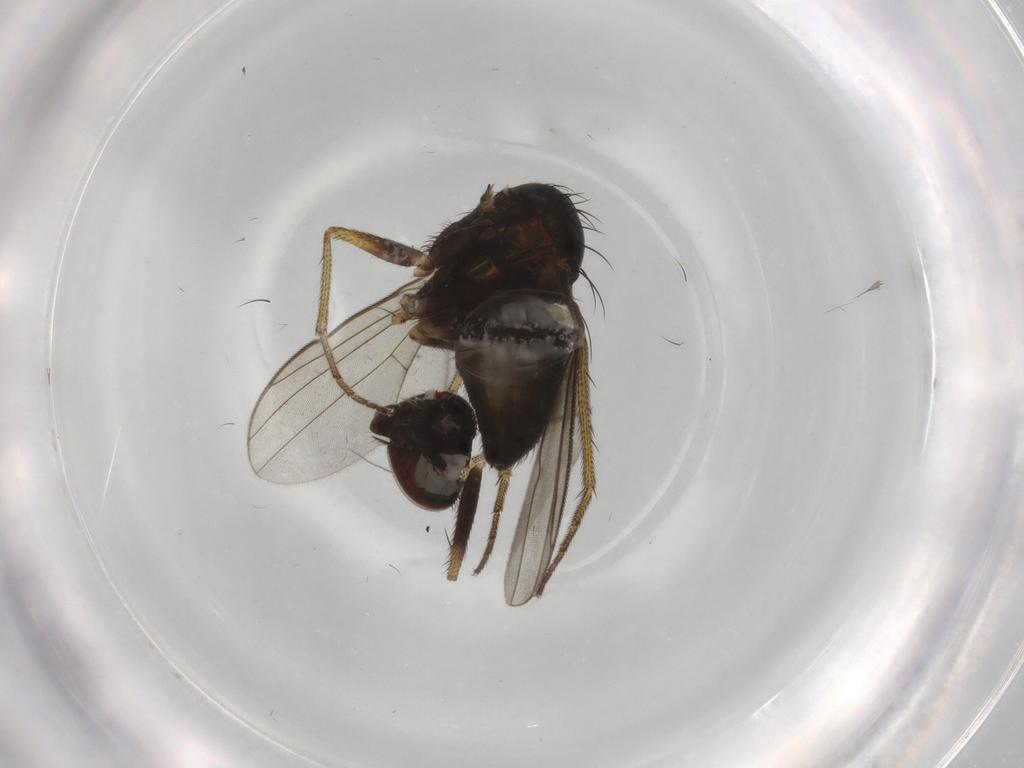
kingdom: Animalia
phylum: Arthropoda
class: Insecta
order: Diptera
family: Dolichopodidae
